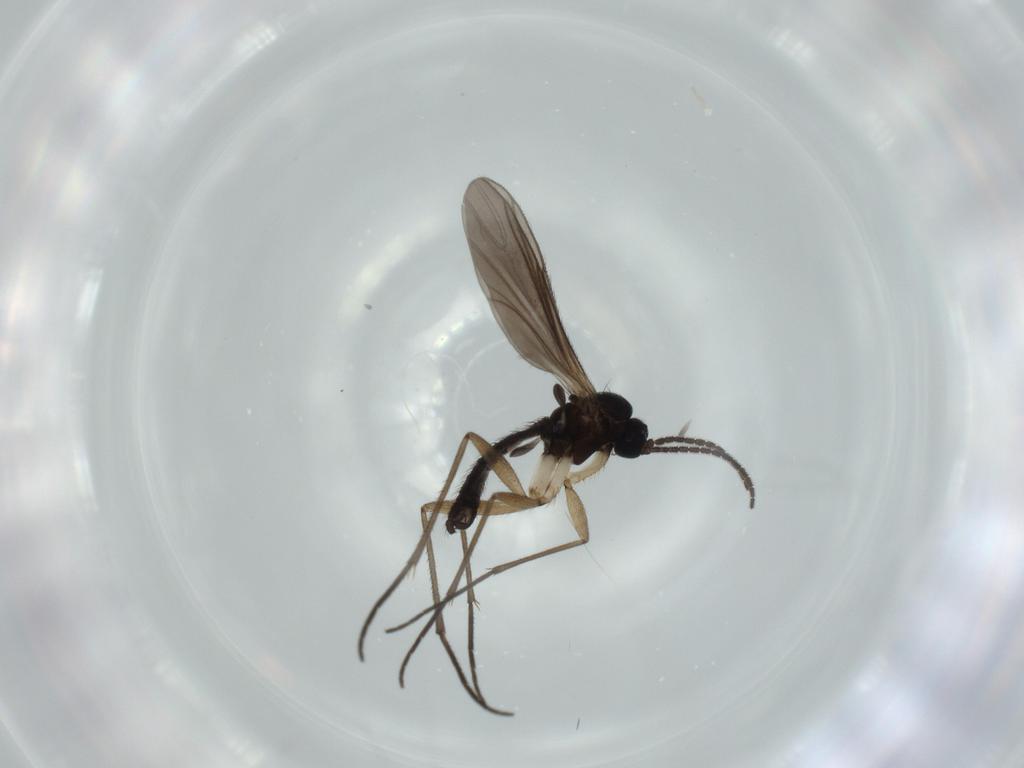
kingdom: Animalia
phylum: Arthropoda
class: Insecta
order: Diptera
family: Sciaridae
